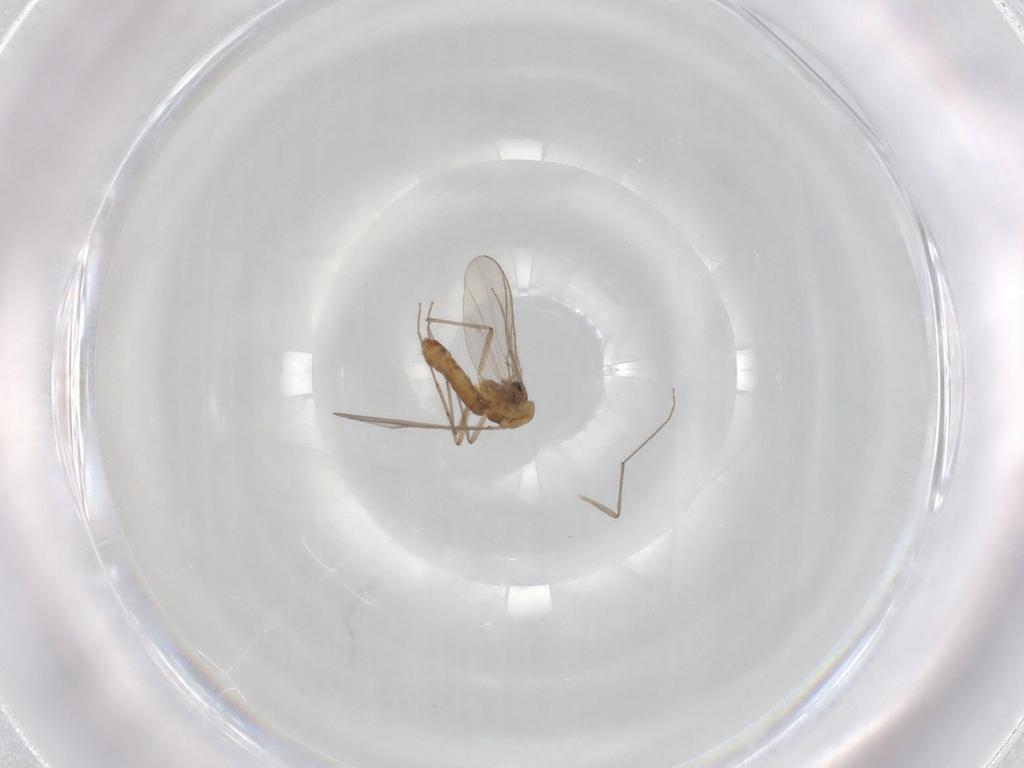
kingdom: Animalia
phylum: Arthropoda
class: Insecta
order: Diptera
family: Chironomidae
